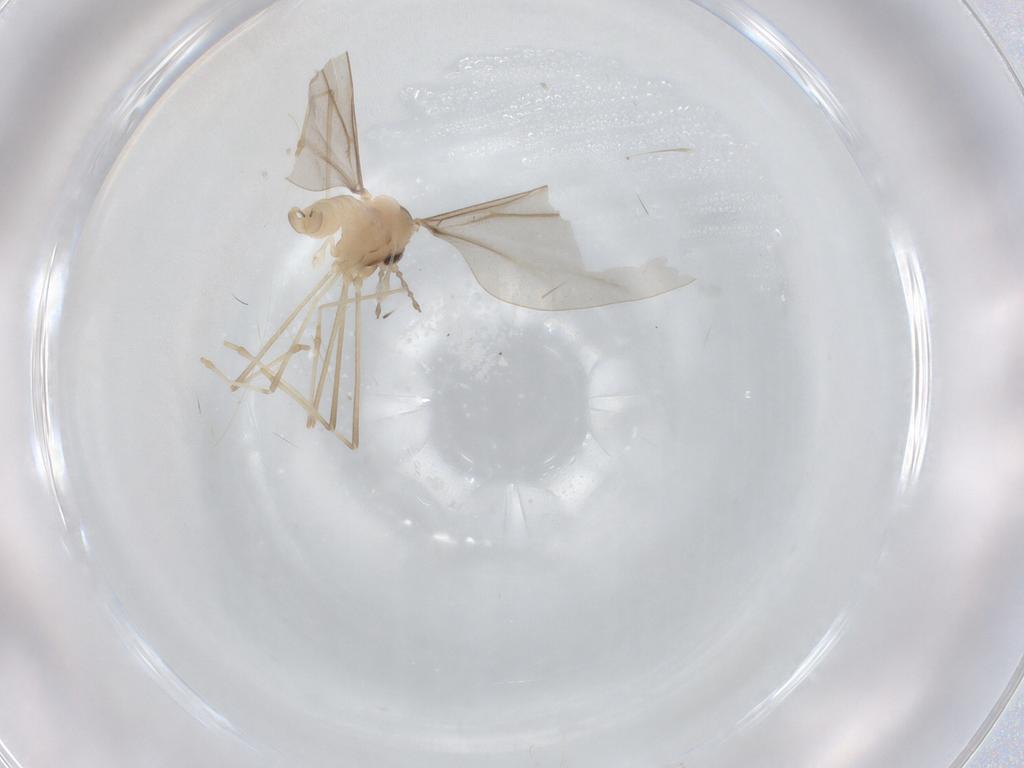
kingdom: Animalia
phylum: Arthropoda
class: Insecta
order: Diptera
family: Cecidomyiidae
